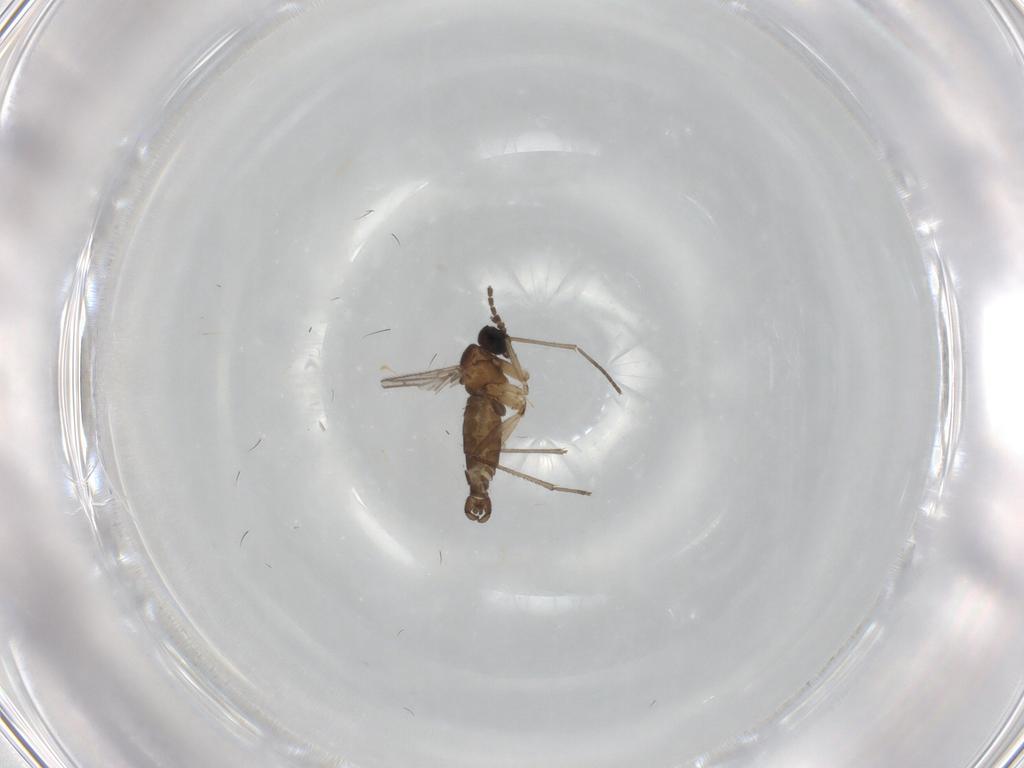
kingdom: Animalia
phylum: Arthropoda
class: Insecta
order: Diptera
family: Sciaridae
